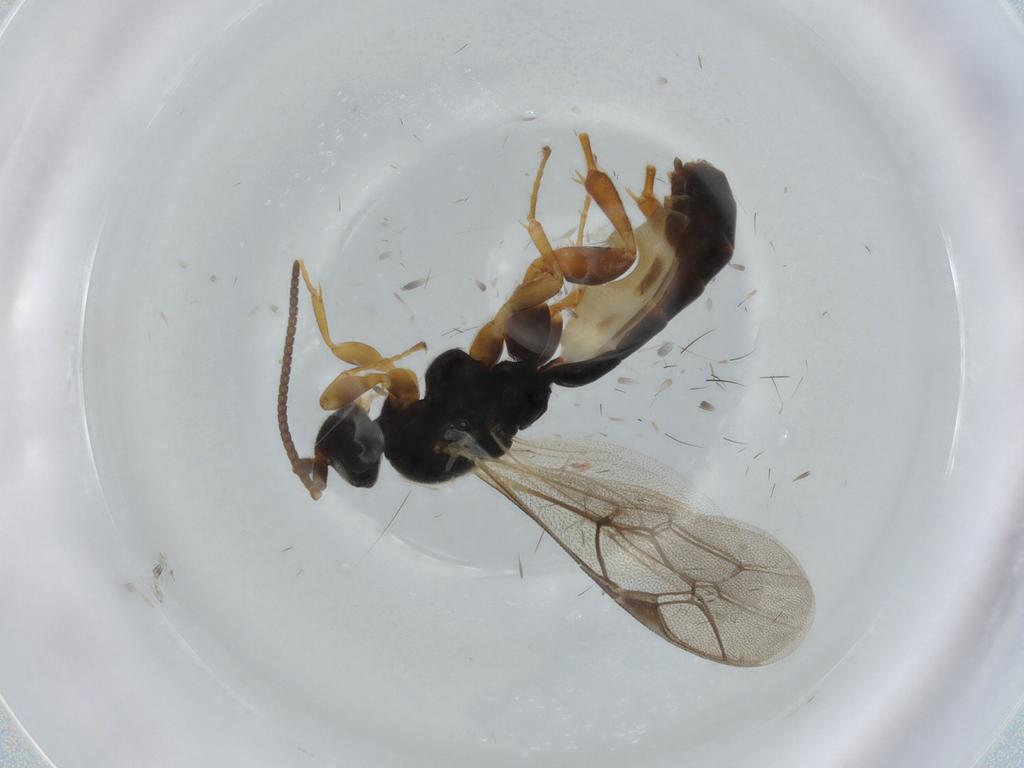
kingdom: Animalia
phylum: Arthropoda
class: Insecta
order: Hymenoptera
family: Ichneumonidae
